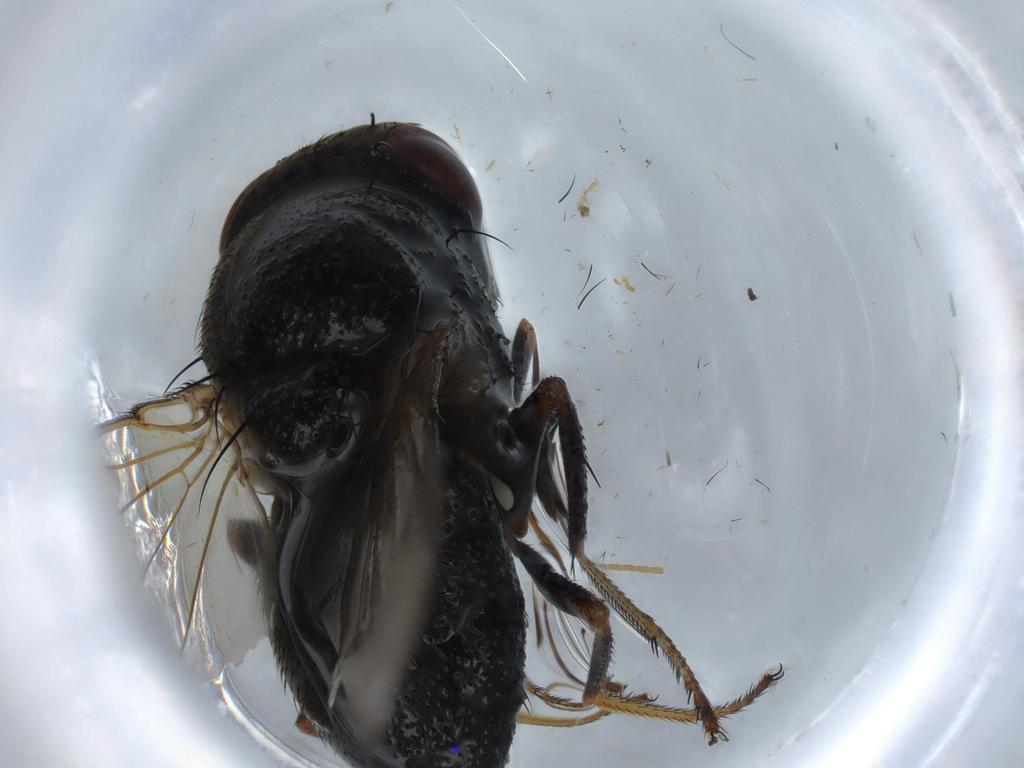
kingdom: Animalia
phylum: Arthropoda
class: Insecta
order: Diptera
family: Ephydridae
